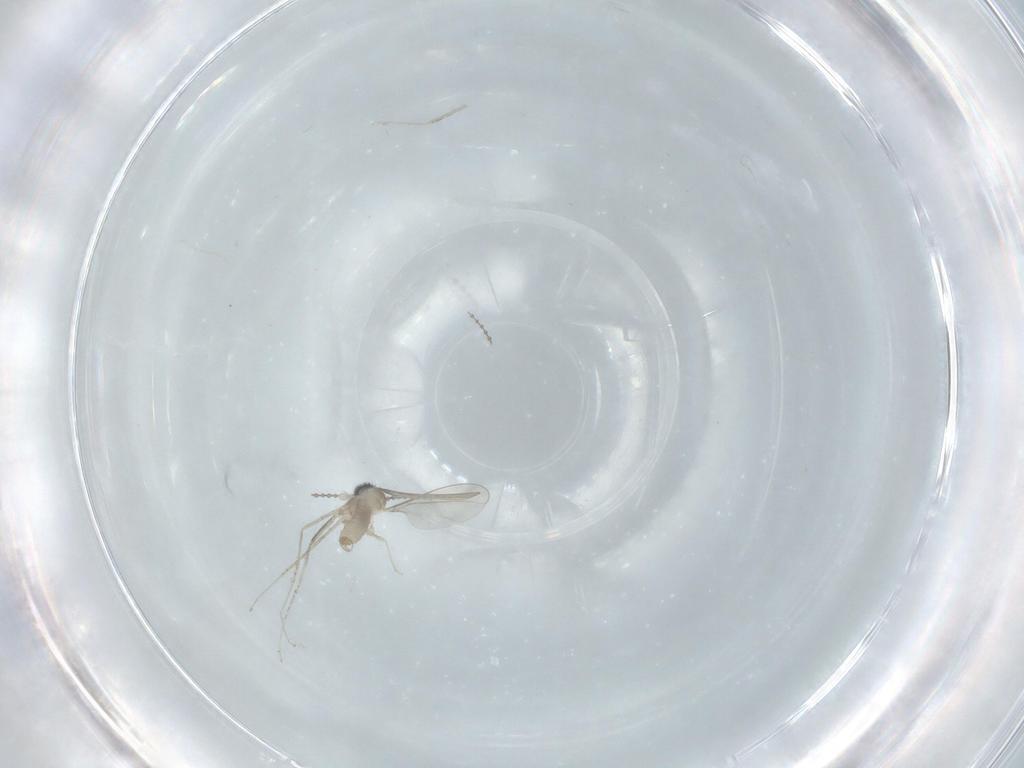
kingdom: Animalia
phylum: Arthropoda
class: Insecta
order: Diptera
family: Cecidomyiidae
